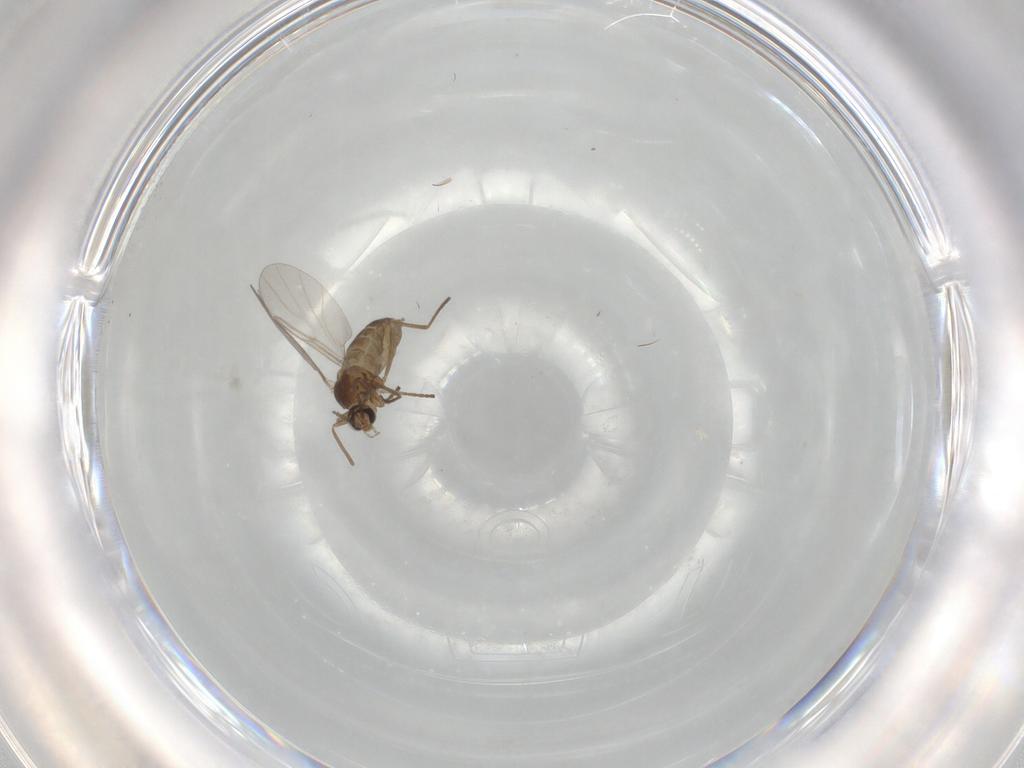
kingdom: Animalia
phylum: Arthropoda
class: Insecta
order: Diptera
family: Cecidomyiidae
